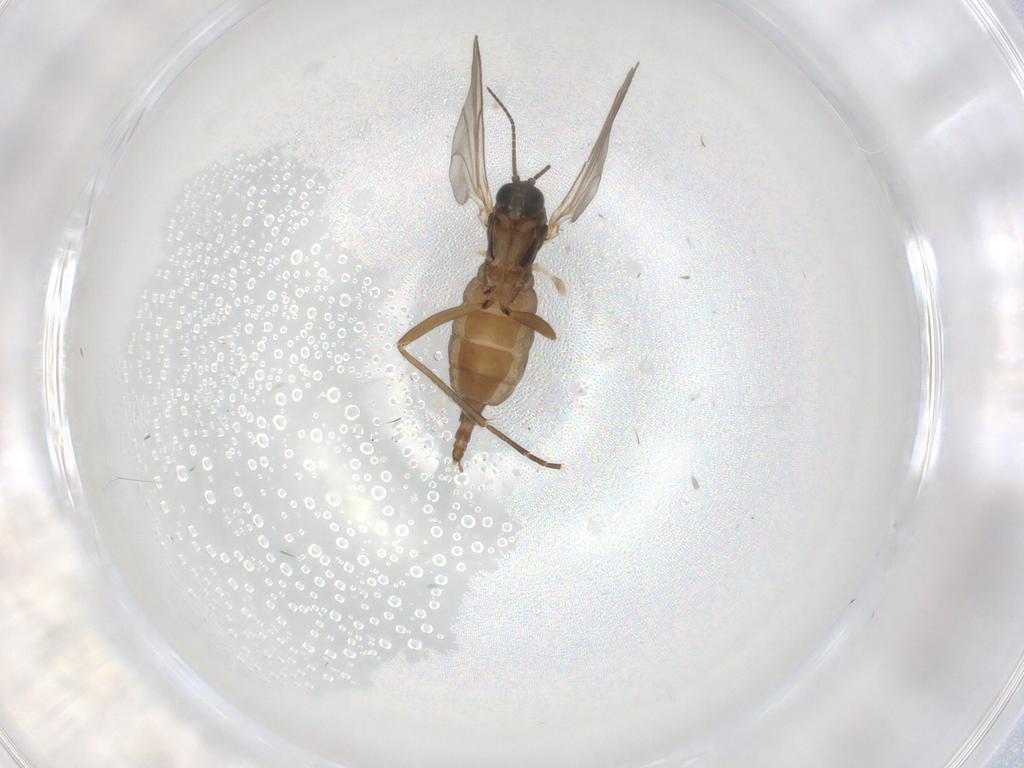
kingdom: Animalia
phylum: Arthropoda
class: Insecta
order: Diptera
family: Sciaridae
